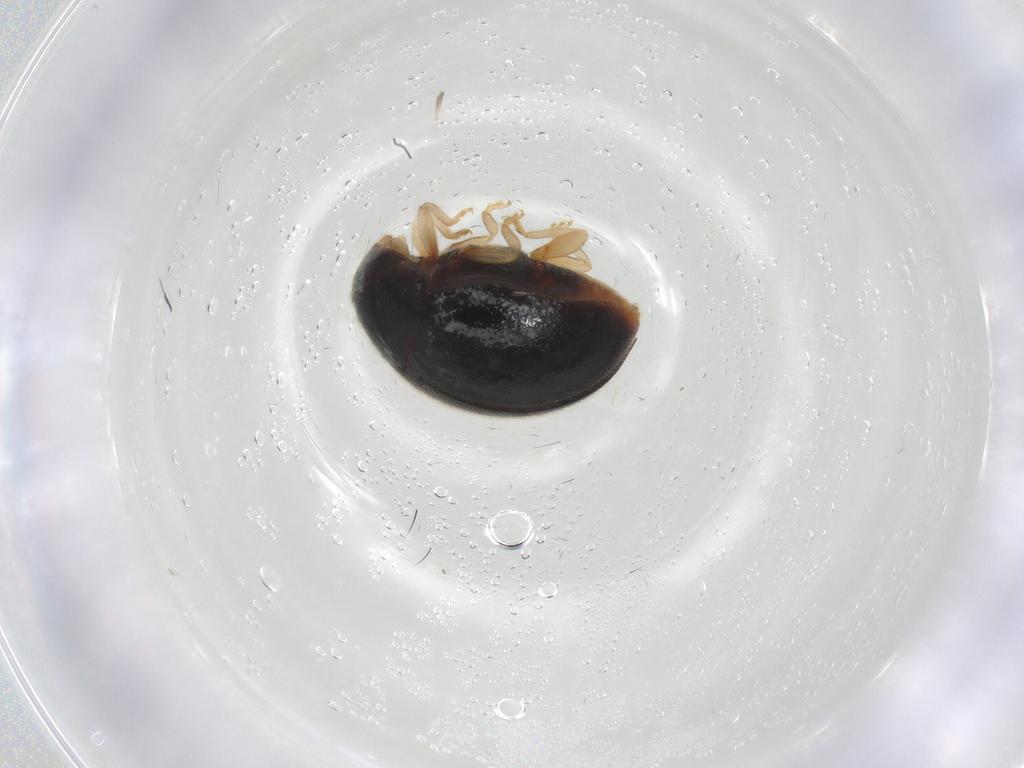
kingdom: Animalia
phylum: Arthropoda
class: Insecta
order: Coleoptera
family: Coccinellidae
